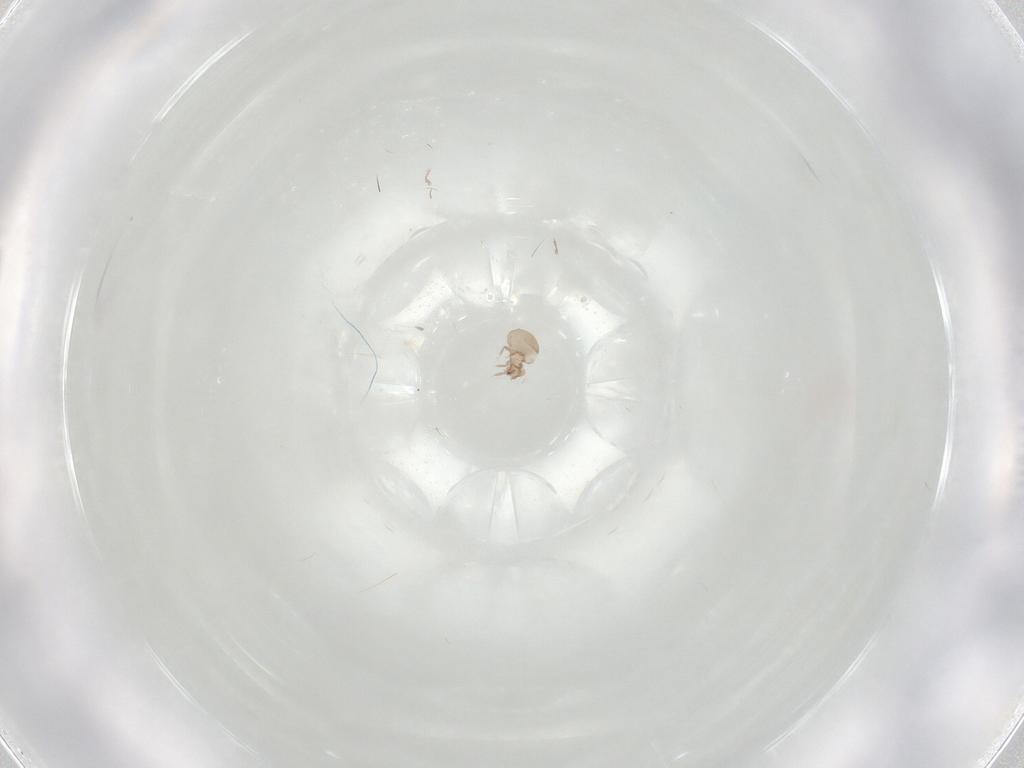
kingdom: Animalia
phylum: Arthropoda
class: Arachnida
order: Sarcoptiformes
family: Galumnidae
